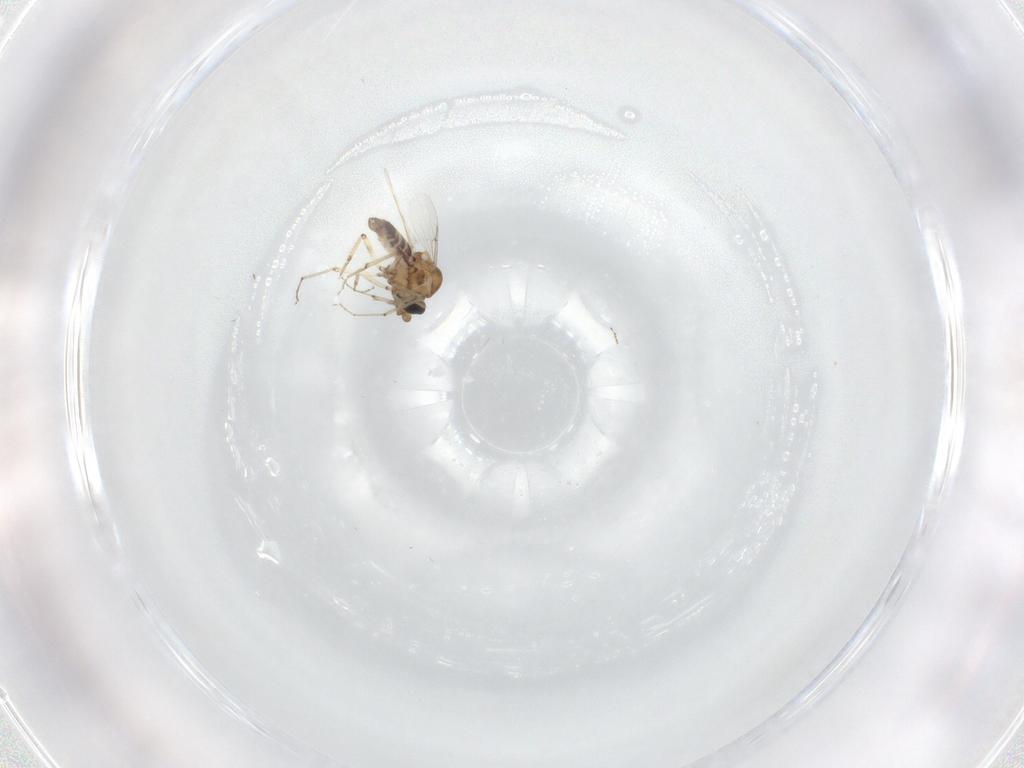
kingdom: Animalia
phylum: Arthropoda
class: Insecta
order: Diptera
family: Ceratopogonidae
